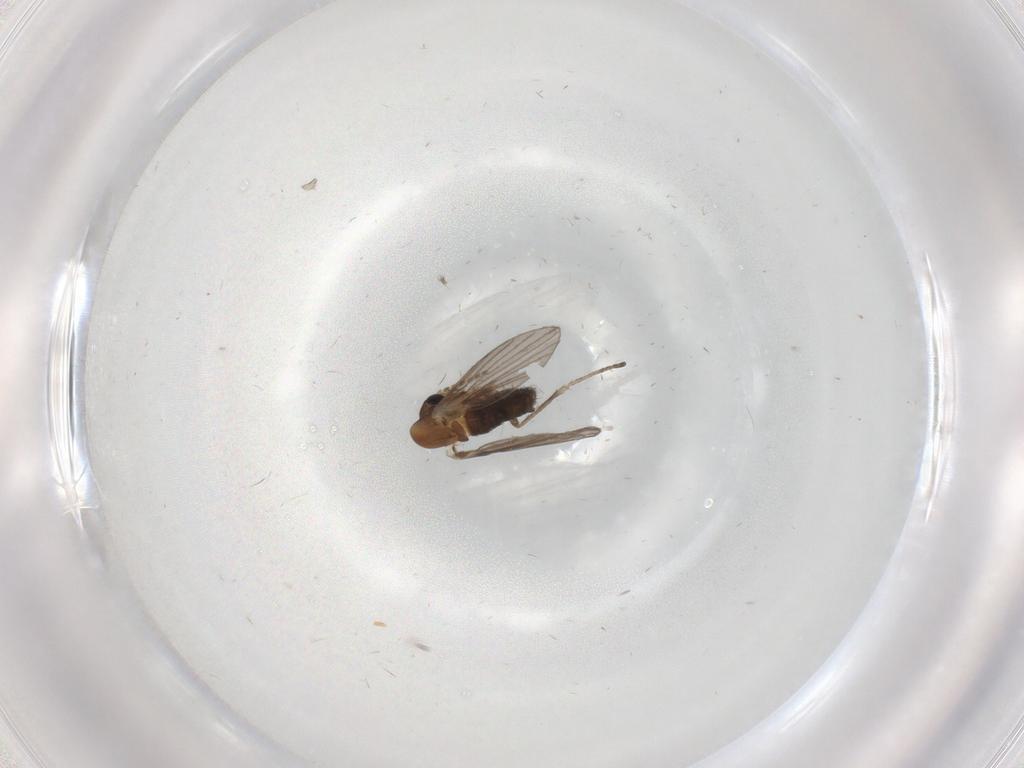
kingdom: Animalia
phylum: Arthropoda
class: Insecta
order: Diptera
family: Psychodidae
